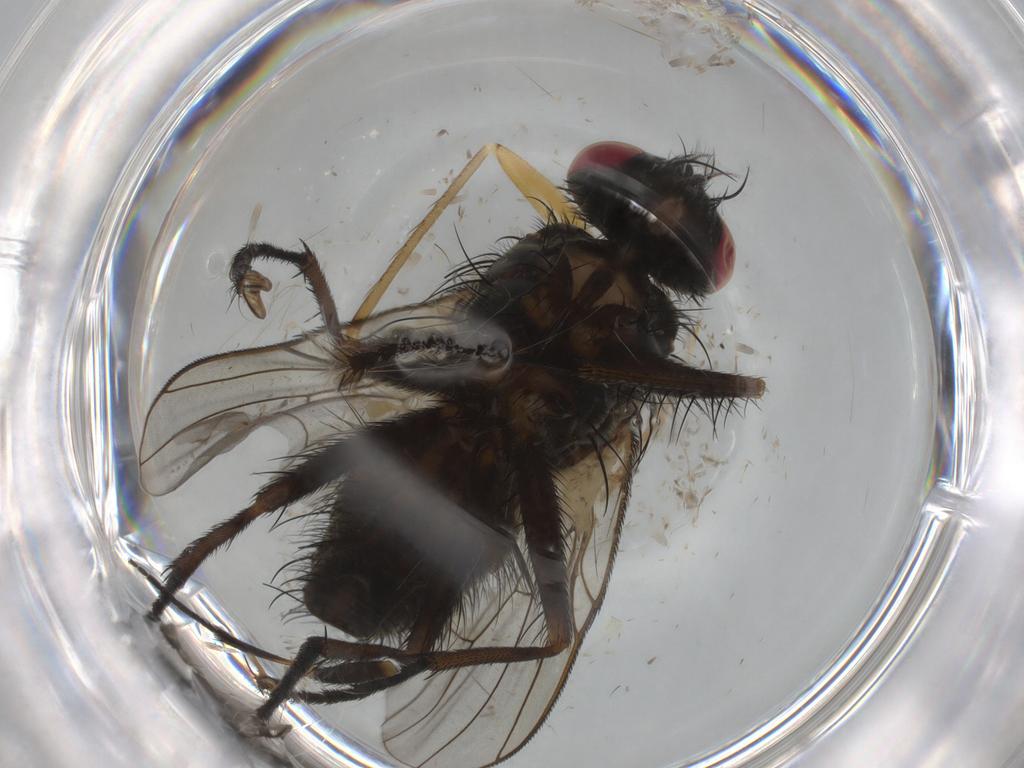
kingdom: Animalia
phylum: Arthropoda
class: Insecta
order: Diptera
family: Muscidae
